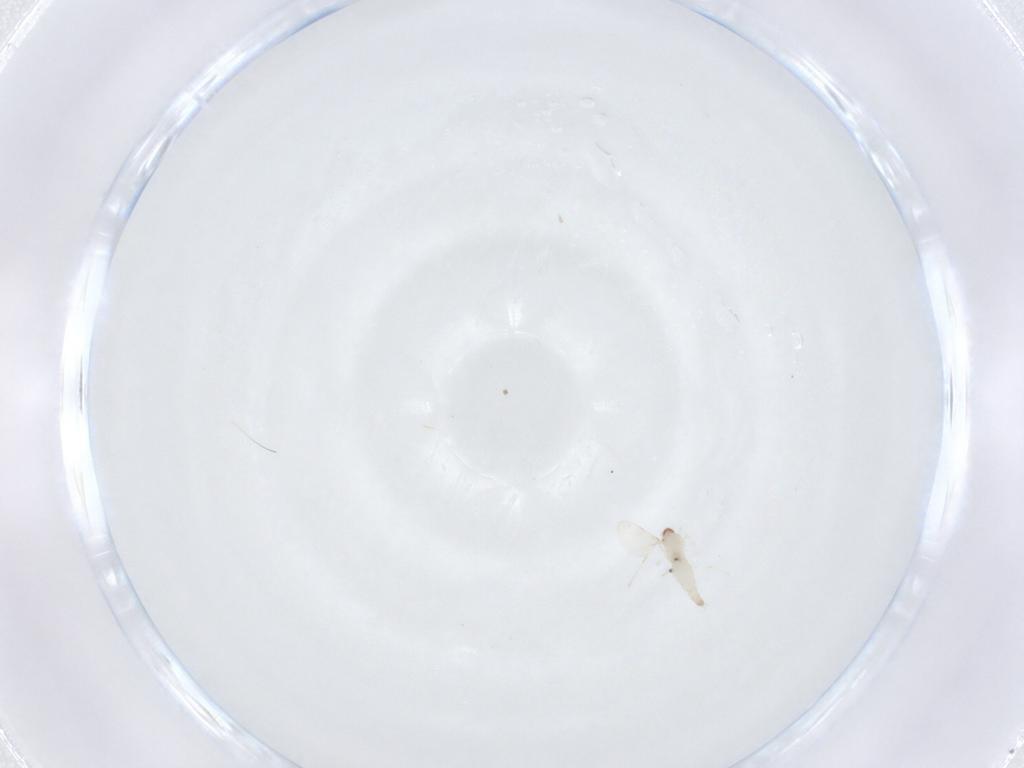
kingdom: Animalia
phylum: Arthropoda
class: Insecta
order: Diptera
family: Cecidomyiidae
